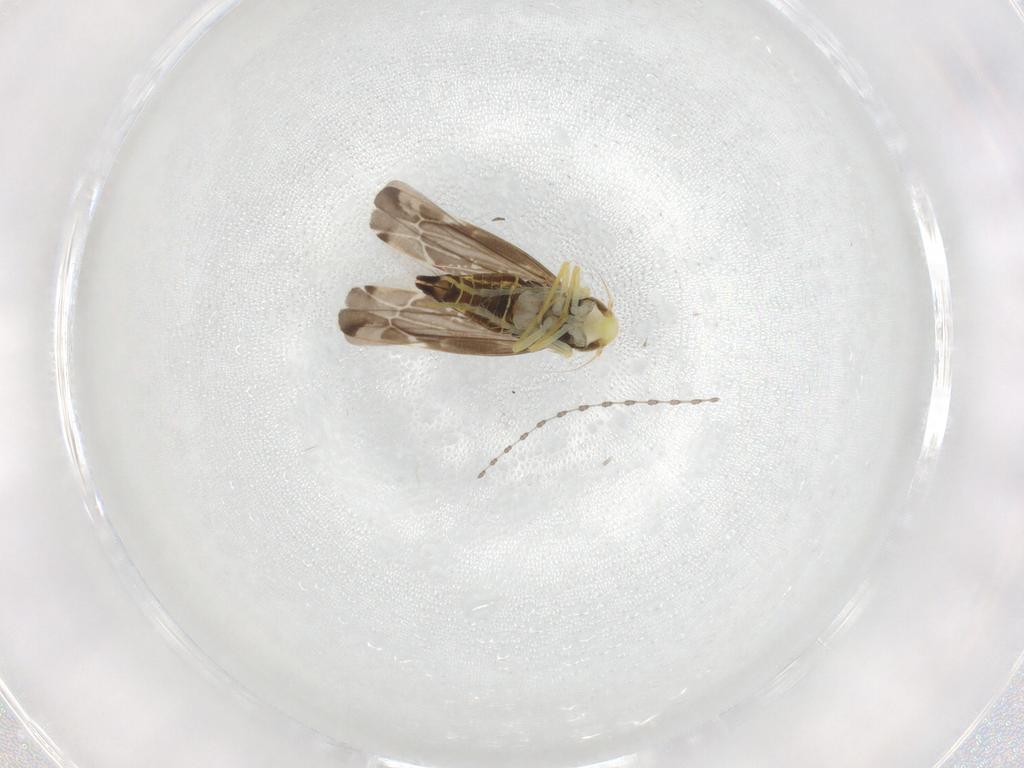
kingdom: Animalia
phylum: Arthropoda
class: Insecta
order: Hemiptera
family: Cicadellidae
